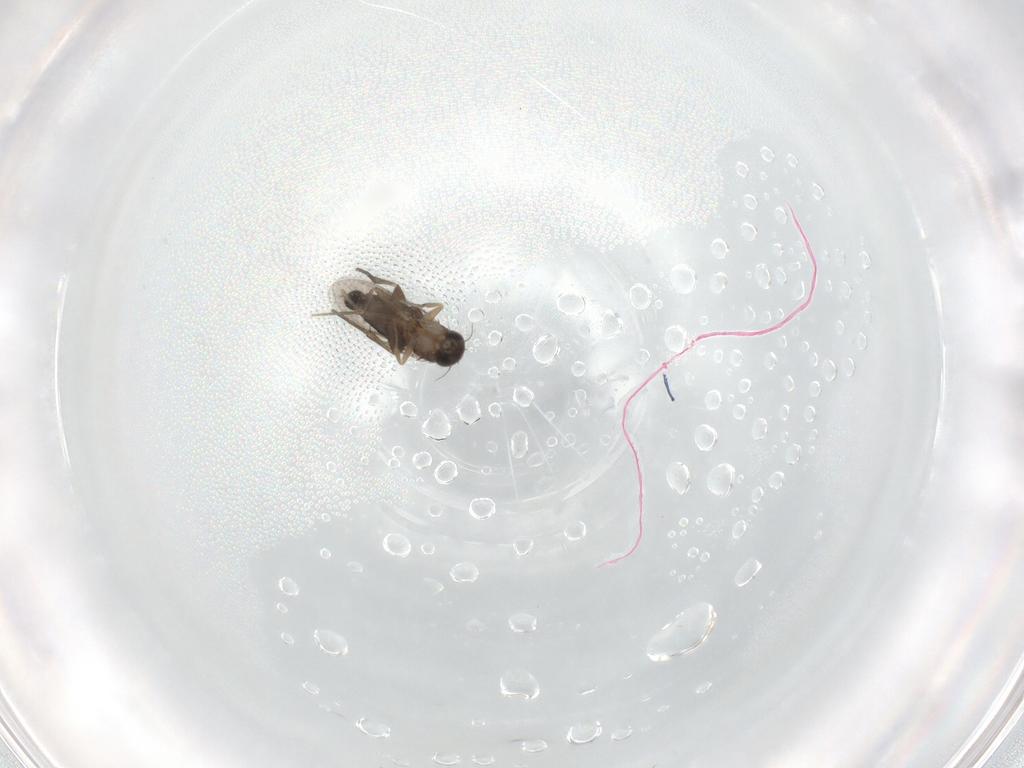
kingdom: Animalia
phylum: Arthropoda
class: Insecta
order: Diptera
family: Phoridae
